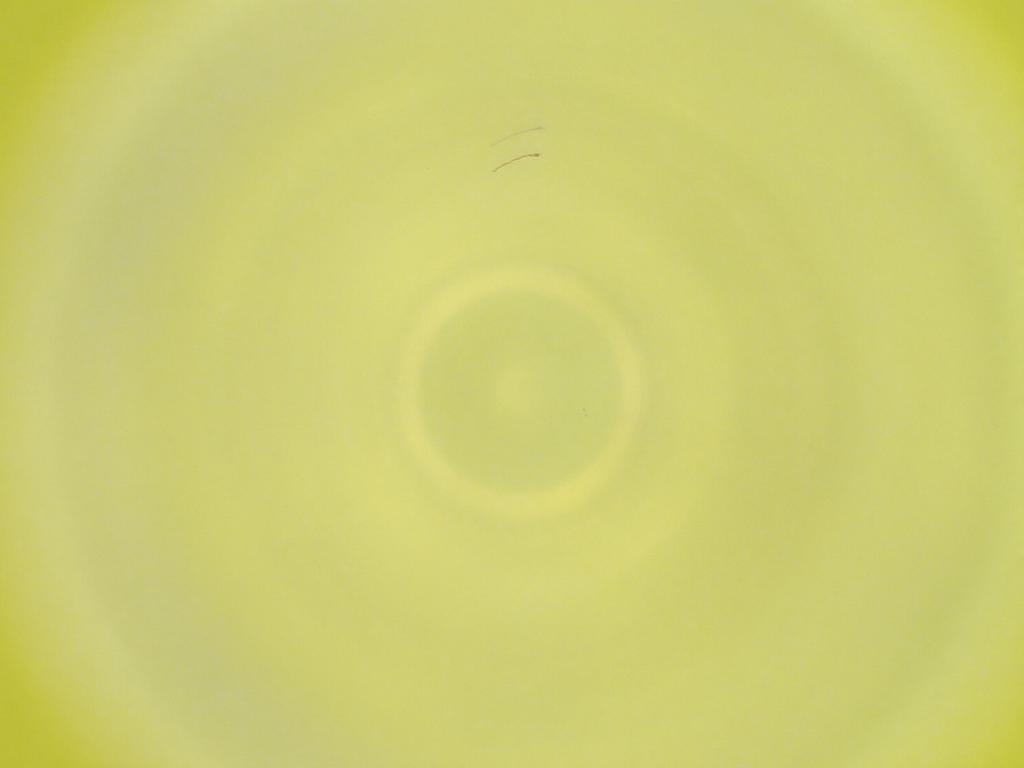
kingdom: Animalia
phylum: Arthropoda
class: Insecta
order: Diptera
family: Cecidomyiidae
